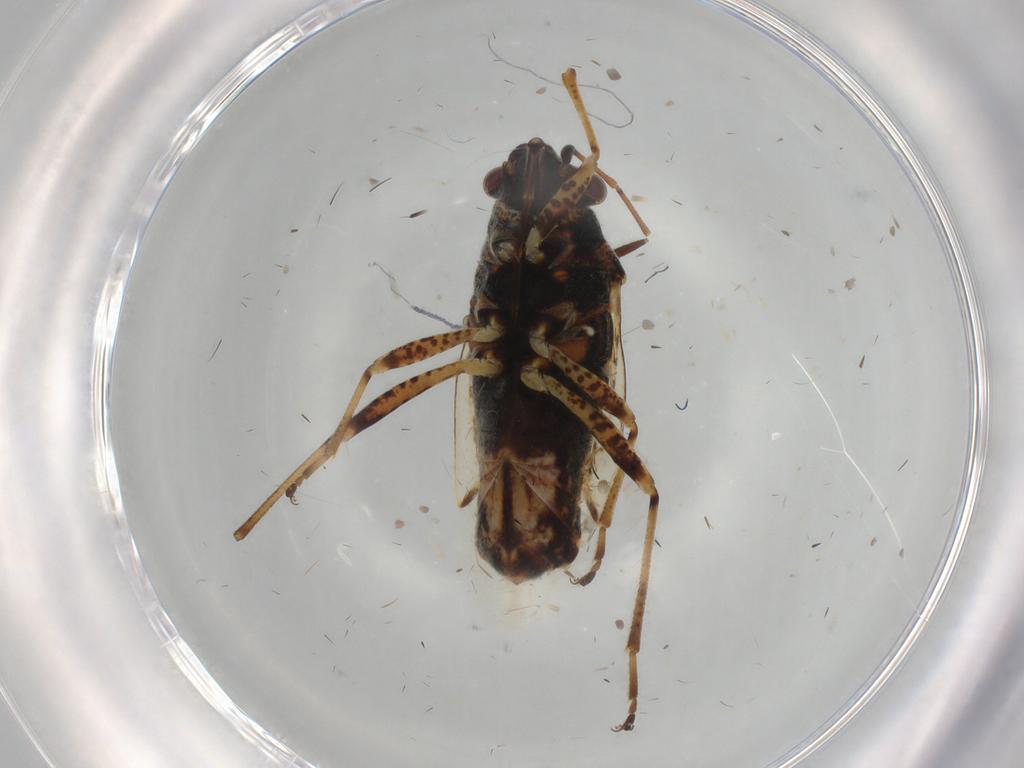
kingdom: Animalia
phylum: Arthropoda
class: Insecta
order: Hemiptera
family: Lygaeidae
